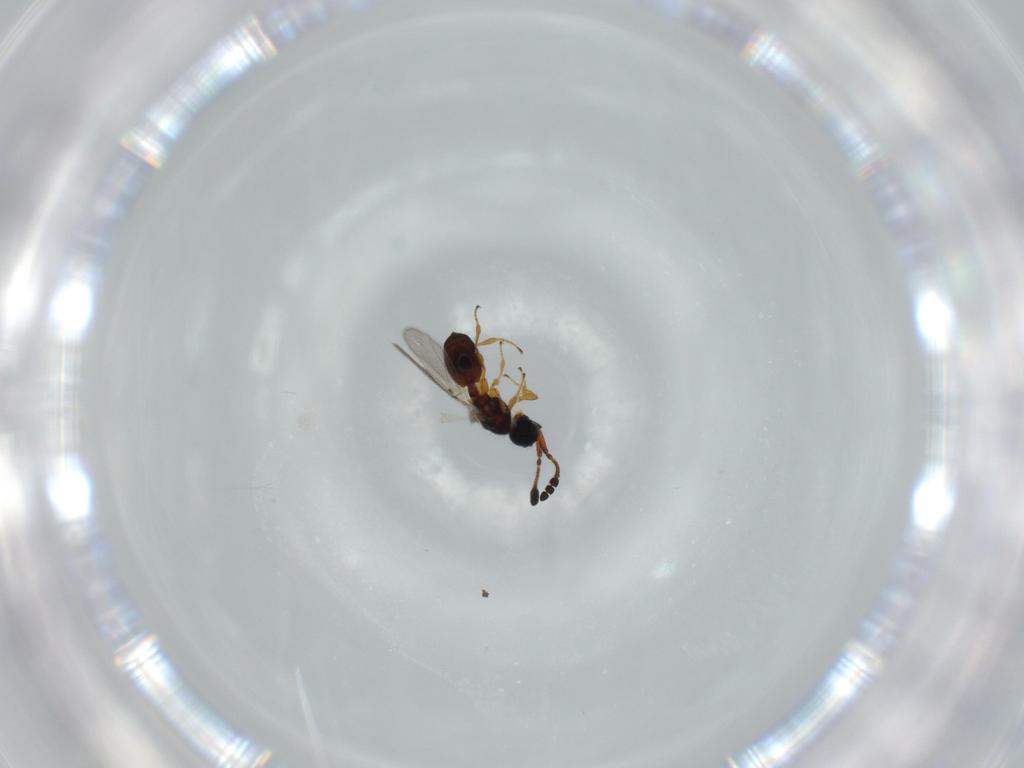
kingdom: Animalia
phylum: Arthropoda
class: Insecta
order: Hymenoptera
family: Diapriidae
